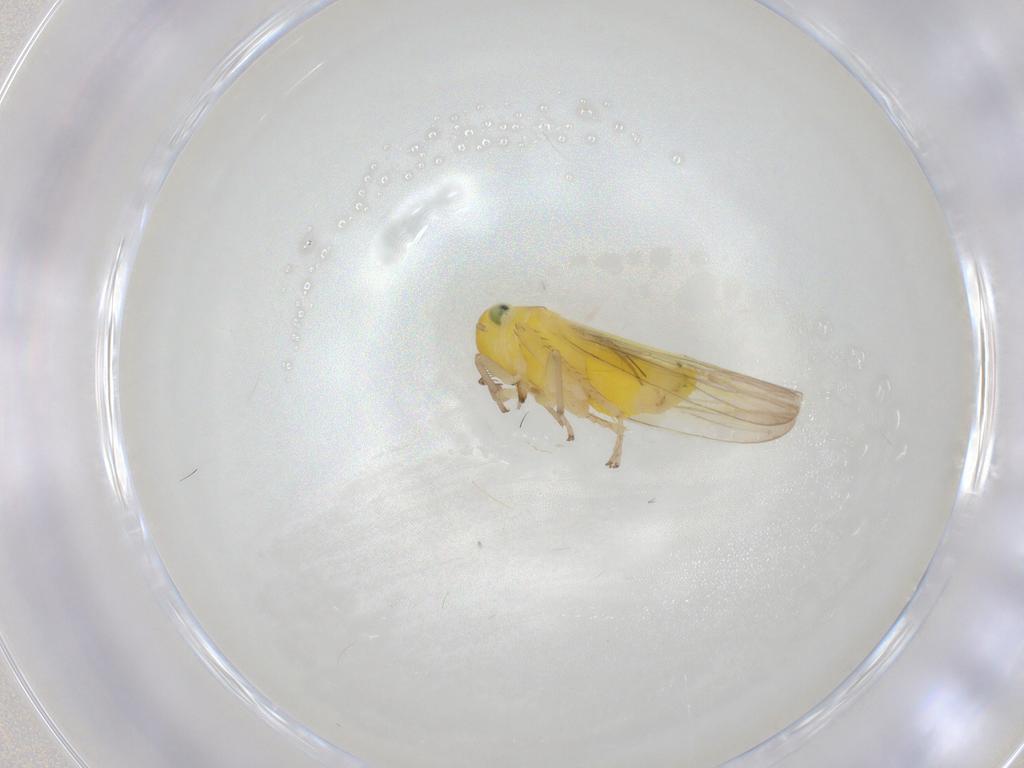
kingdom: Animalia
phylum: Arthropoda
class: Insecta
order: Hemiptera
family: Cicadellidae
